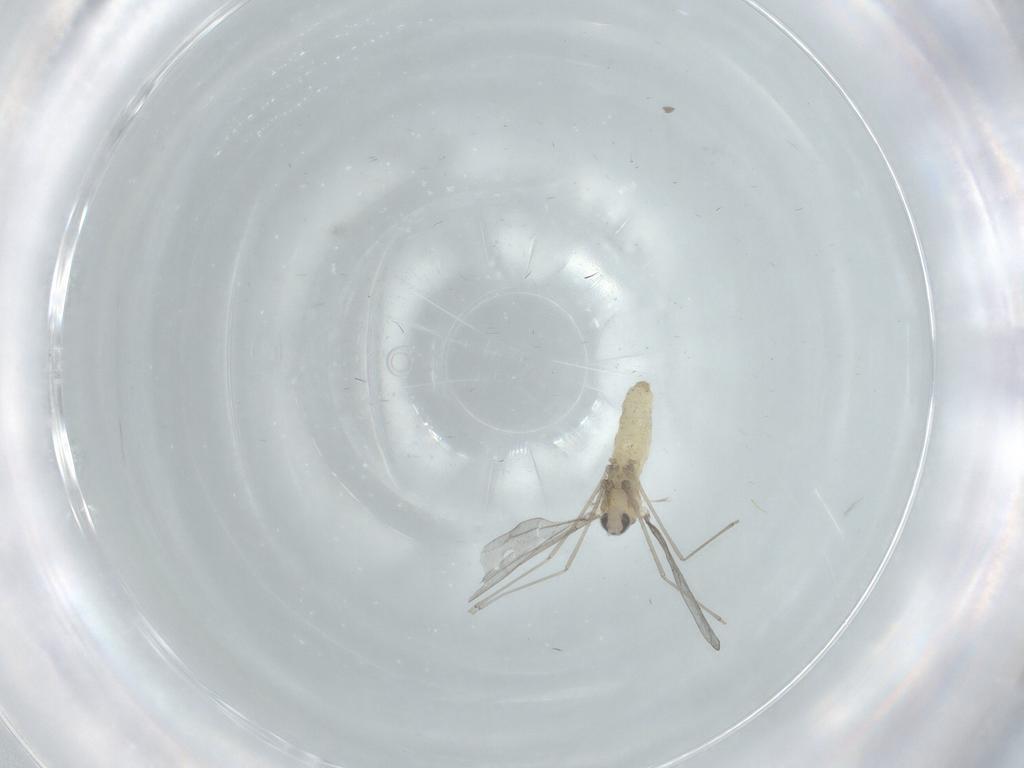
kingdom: Animalia
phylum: Arthropoda
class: Insecta
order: Diptera
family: Cecidomyiidae
